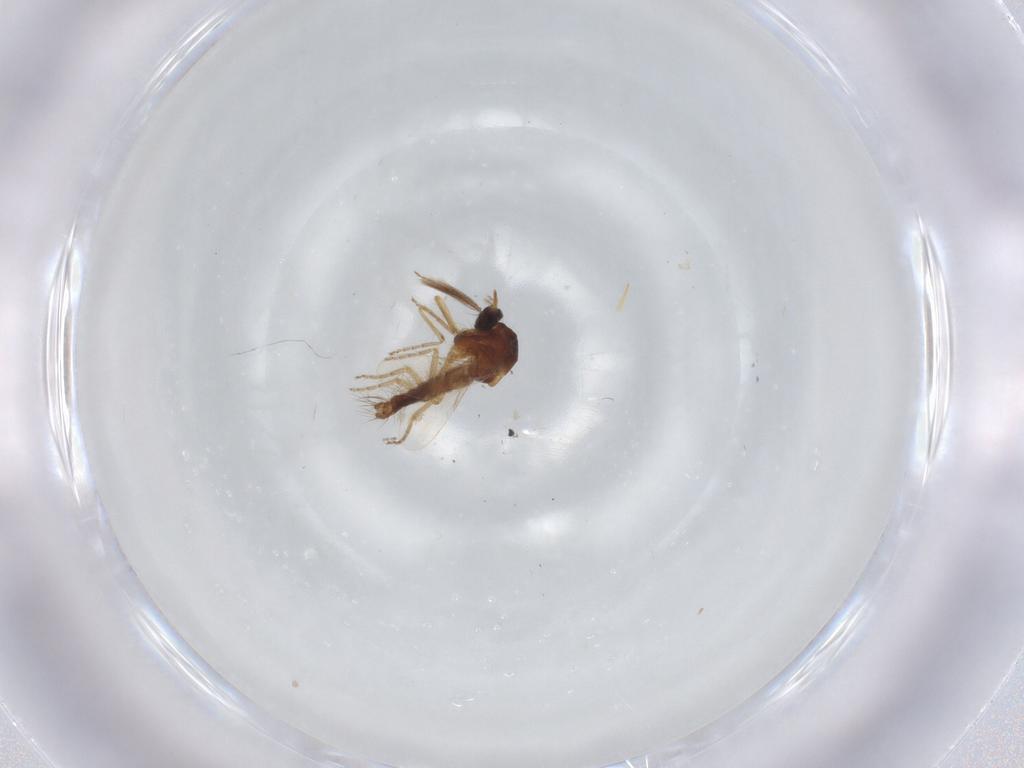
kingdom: Animalia
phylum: Arthropoda
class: Insecta
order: Diptera
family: Ceratopogonidae
